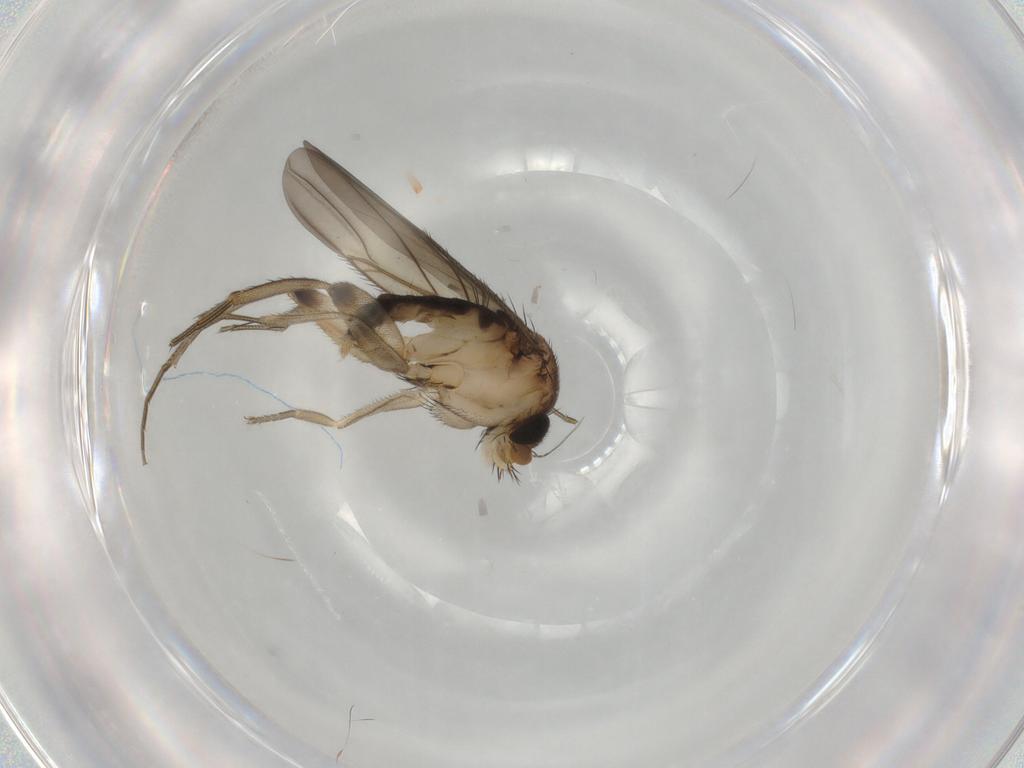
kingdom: Animalia
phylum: Arthropoda
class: Insecta
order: Diptera
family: Phoridae
